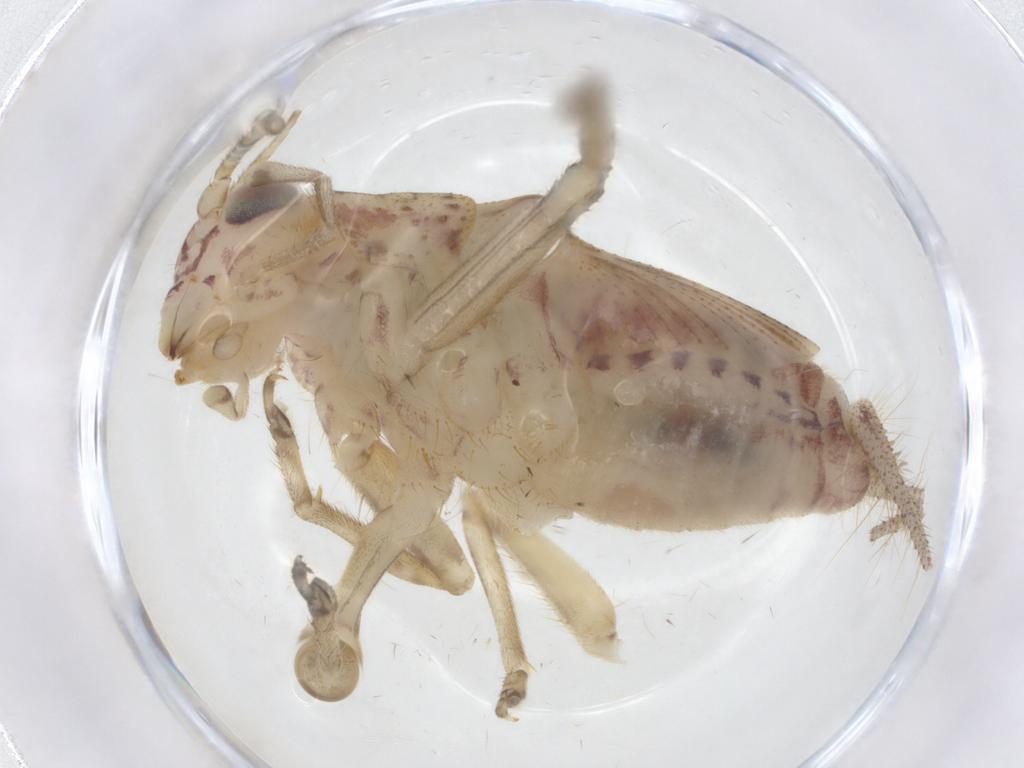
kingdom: Animalia
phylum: Arthropoda
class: Insecta
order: Orthoptera
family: Trigonidiidae
